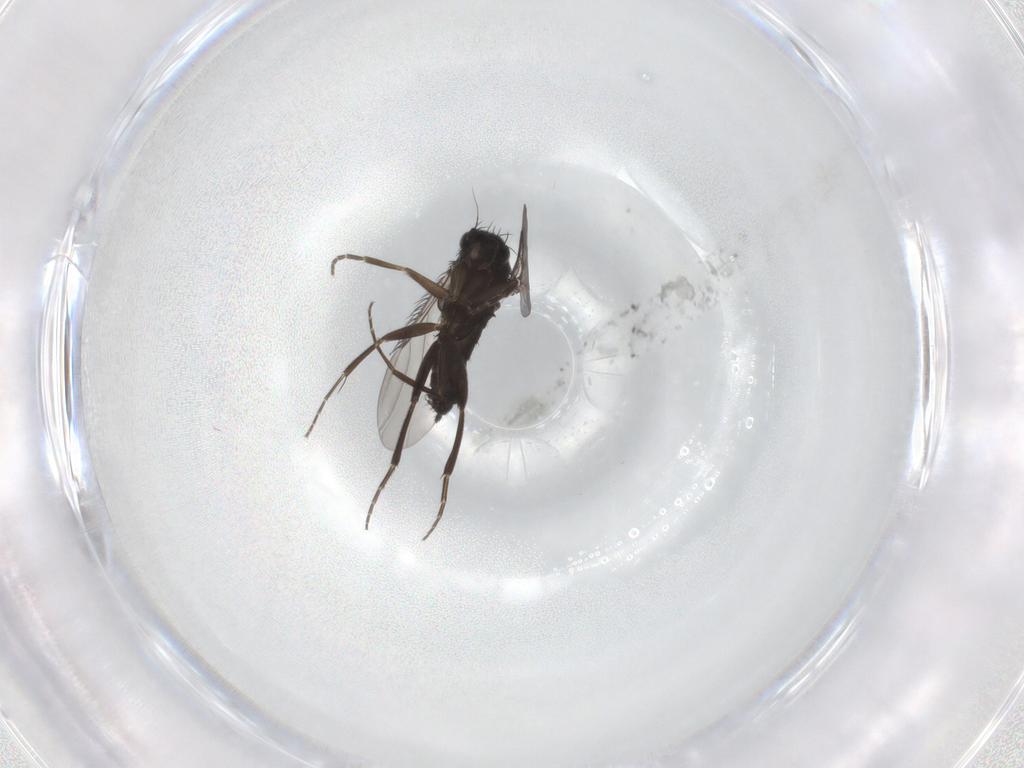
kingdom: Animalia
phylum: Arthropoda
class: Insecta
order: Diptera
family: Phoridae
